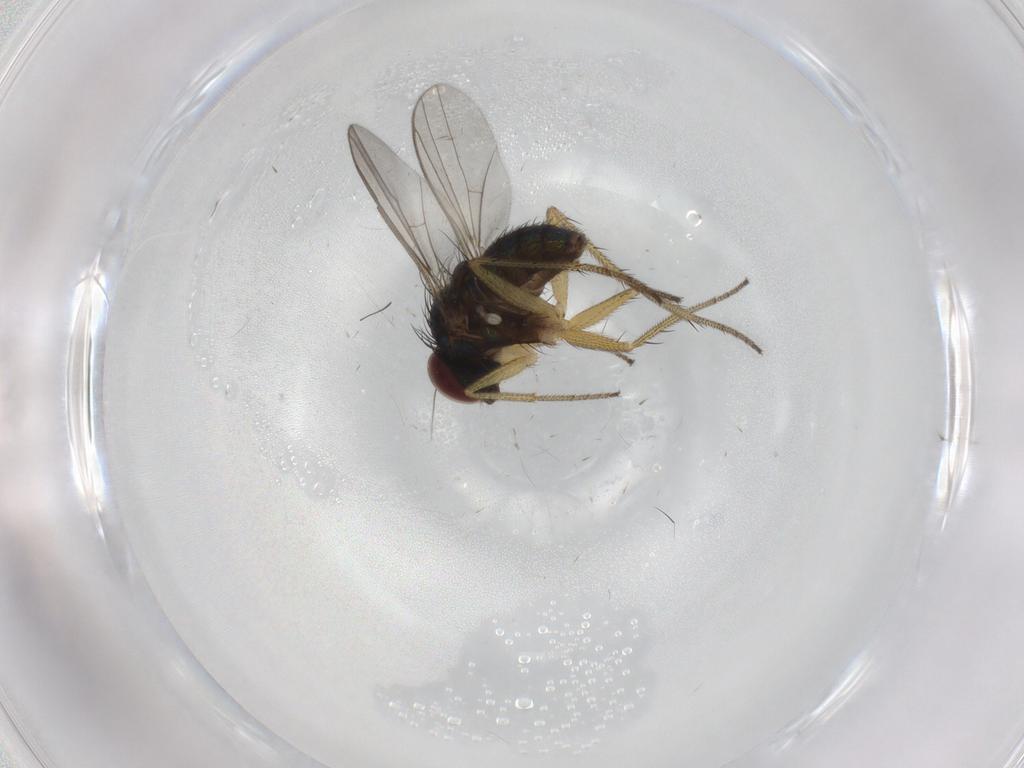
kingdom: Animalia
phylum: Arthropoda
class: Insecta
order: Diptera
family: Dolichopodidae
